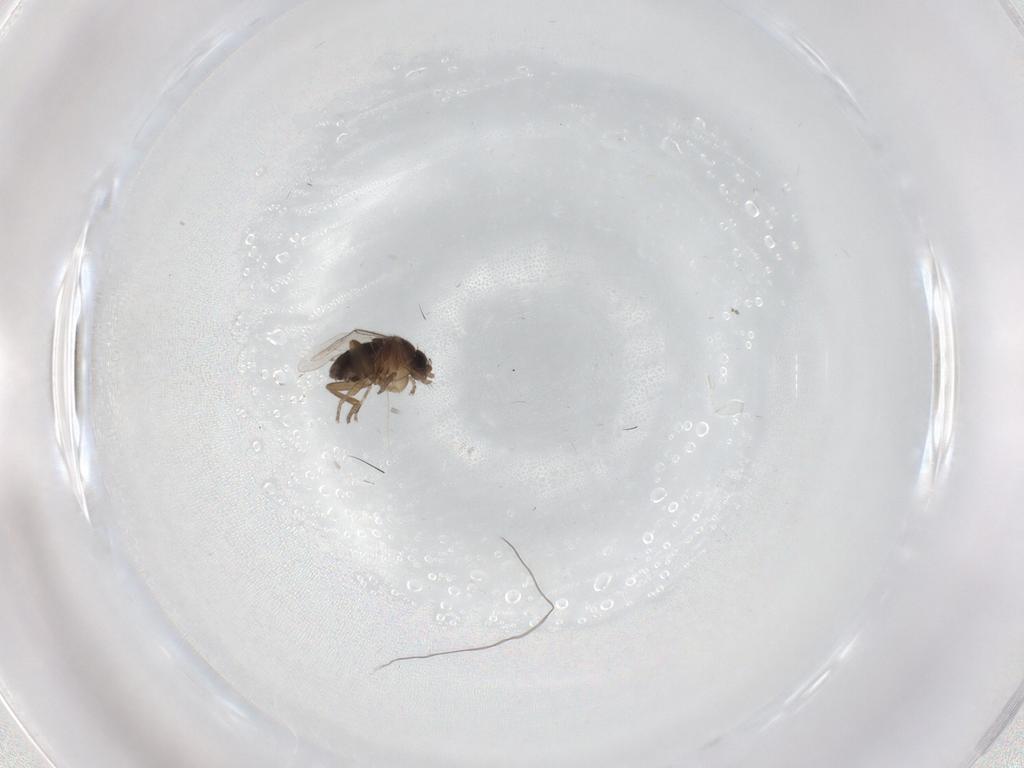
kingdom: Animalia
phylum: Arthropoda
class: Insecta
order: Diptera
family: Phoridae
